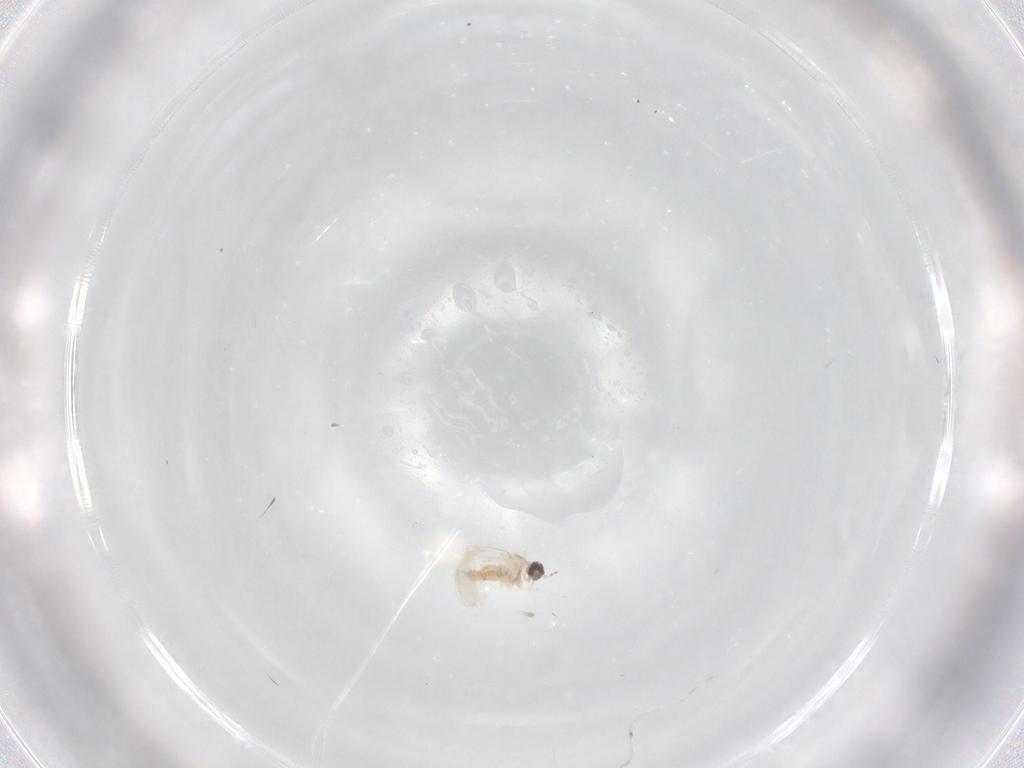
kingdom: Animalia
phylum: Arthropoda
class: Insecta
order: Diptera
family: Cecidomyiidae
